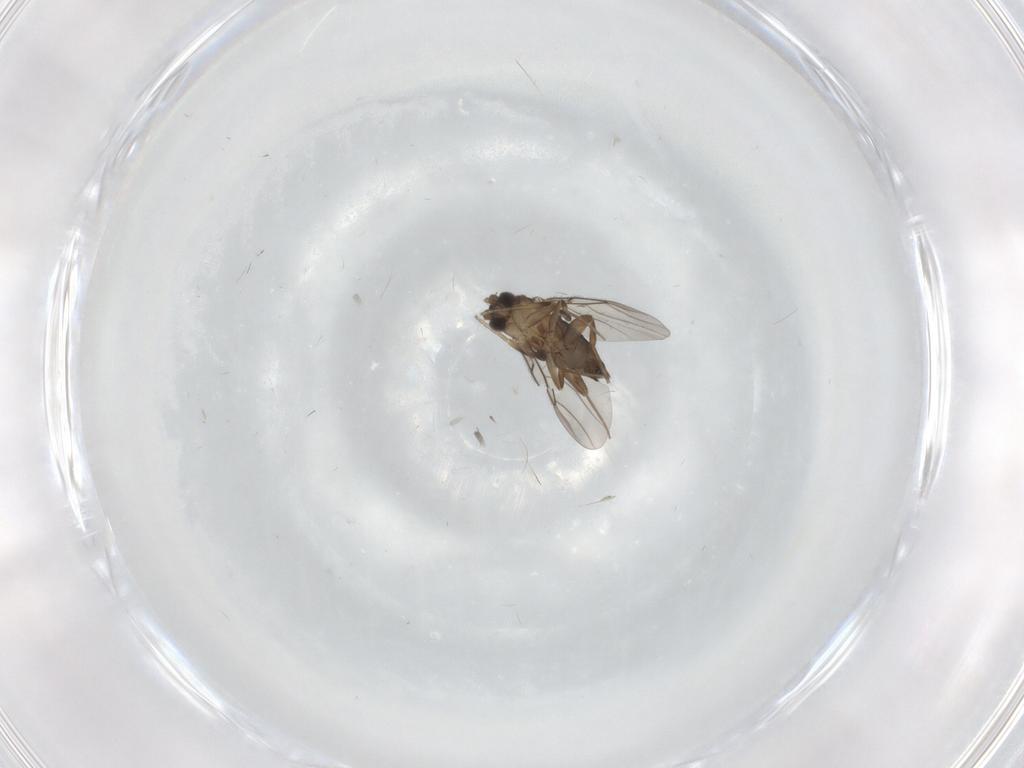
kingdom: Animalia
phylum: Arthropoda
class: Insecta
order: Diptera
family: Phoridae
